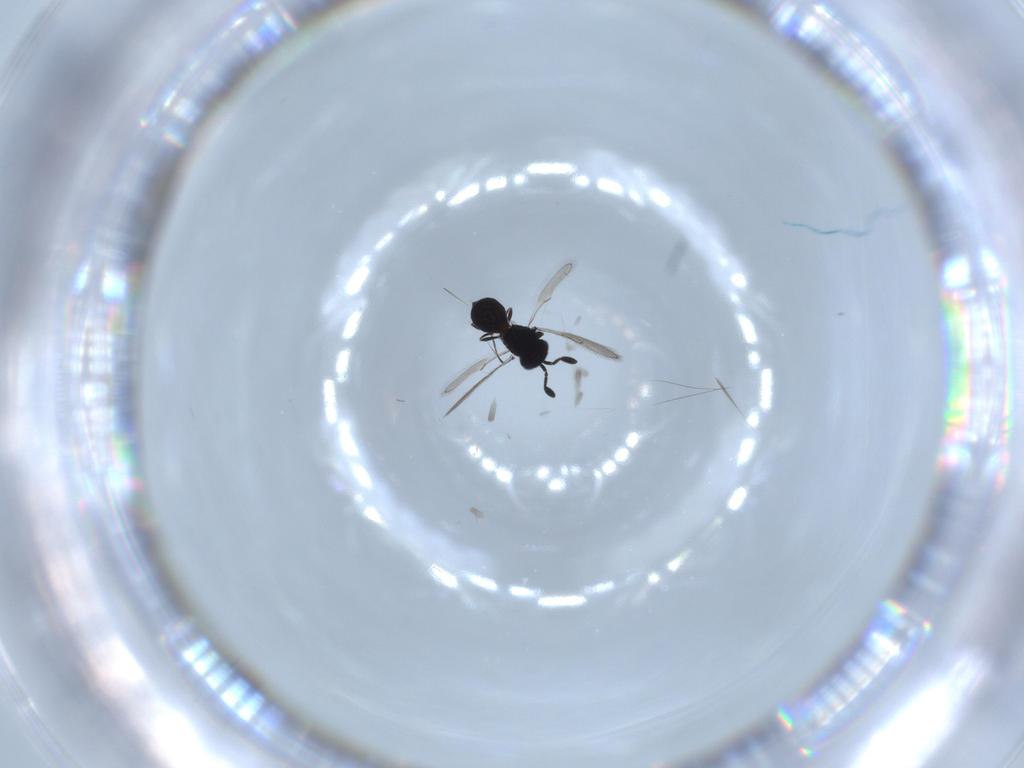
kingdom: Animalia
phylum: Arthropoda
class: Insecta
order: Hymenoptera
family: Scelionidae
